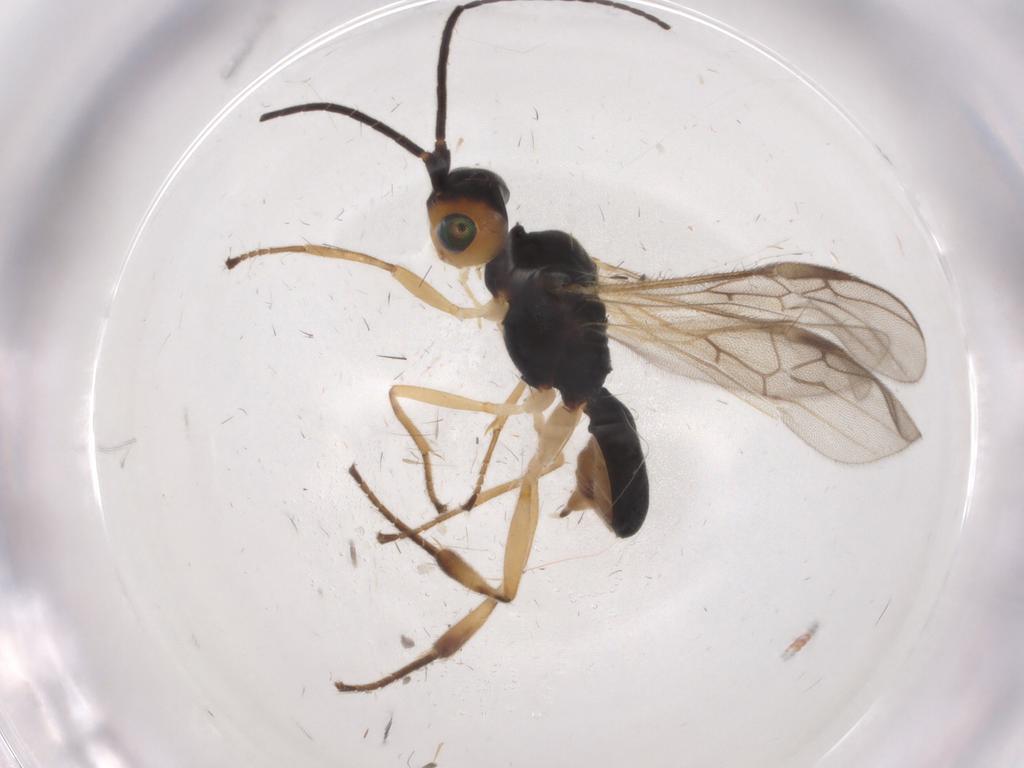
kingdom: Animalia
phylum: Arthropoda
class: Insecta
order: Hymenoptera
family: Braconidae
